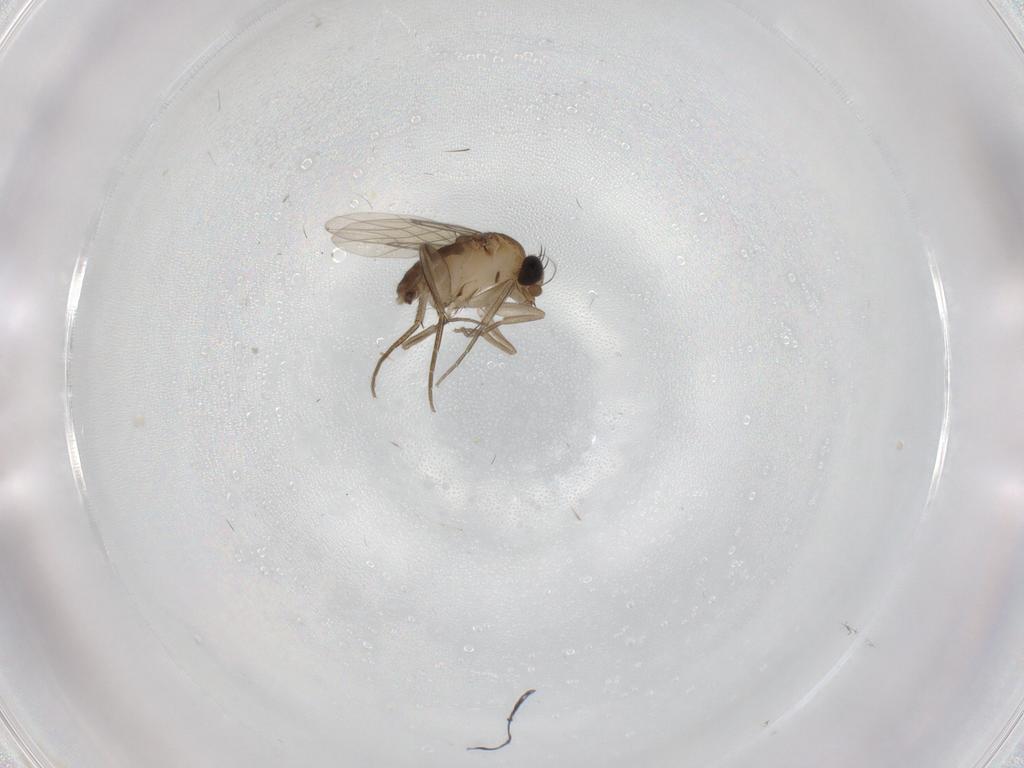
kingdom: Animalia
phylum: Arthropoda
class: Insecta
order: Diptera
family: Phoridae
